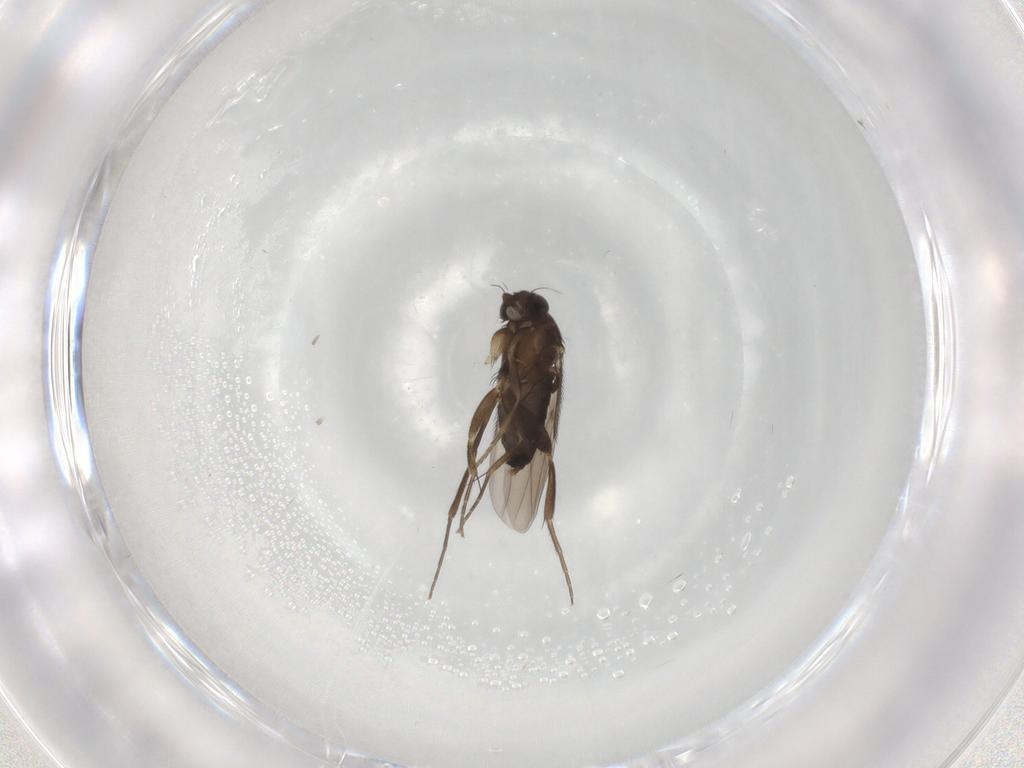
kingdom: Animalia
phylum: Arthropoda
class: Insecta
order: Diptera
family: Phoridae
